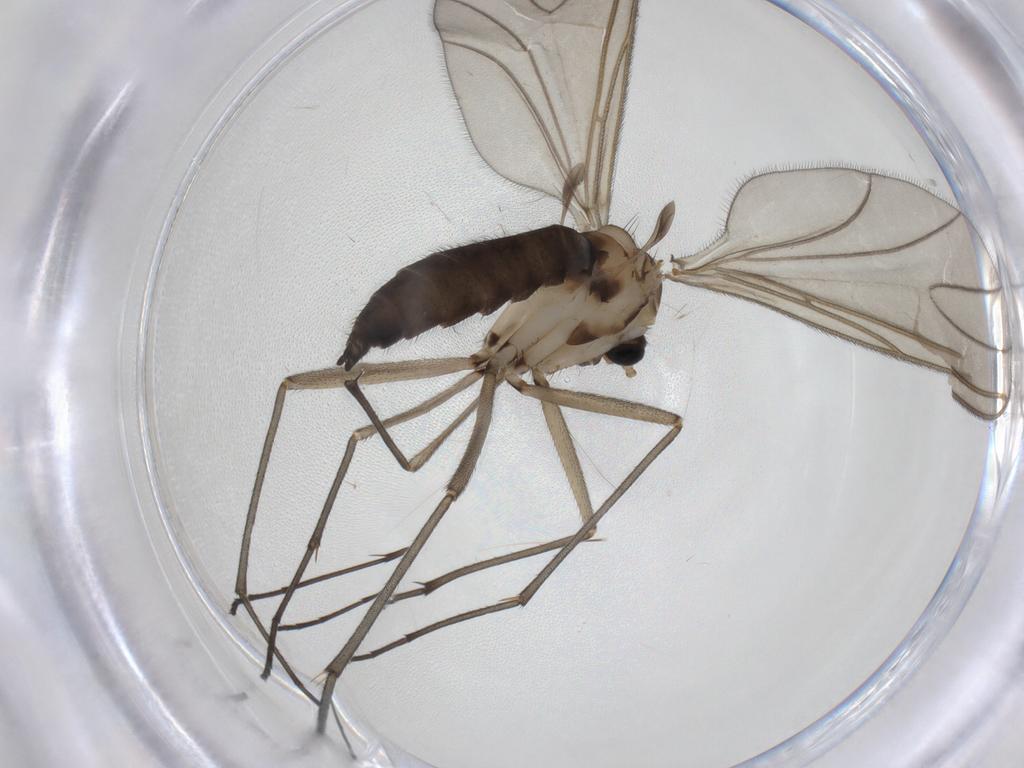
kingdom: Animalia
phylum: Arthropoda
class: Insecta
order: Diptera
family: Sciaridae
